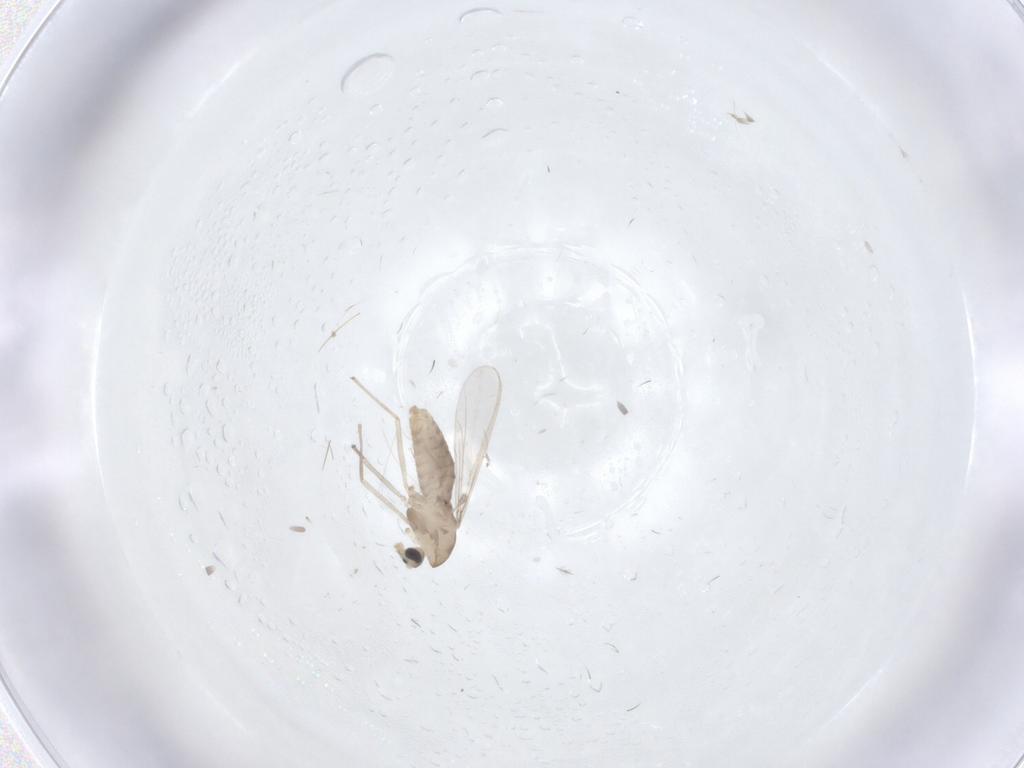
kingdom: Animalia
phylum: Arthropoda
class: Insecta
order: Diptera
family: Chironomidae
